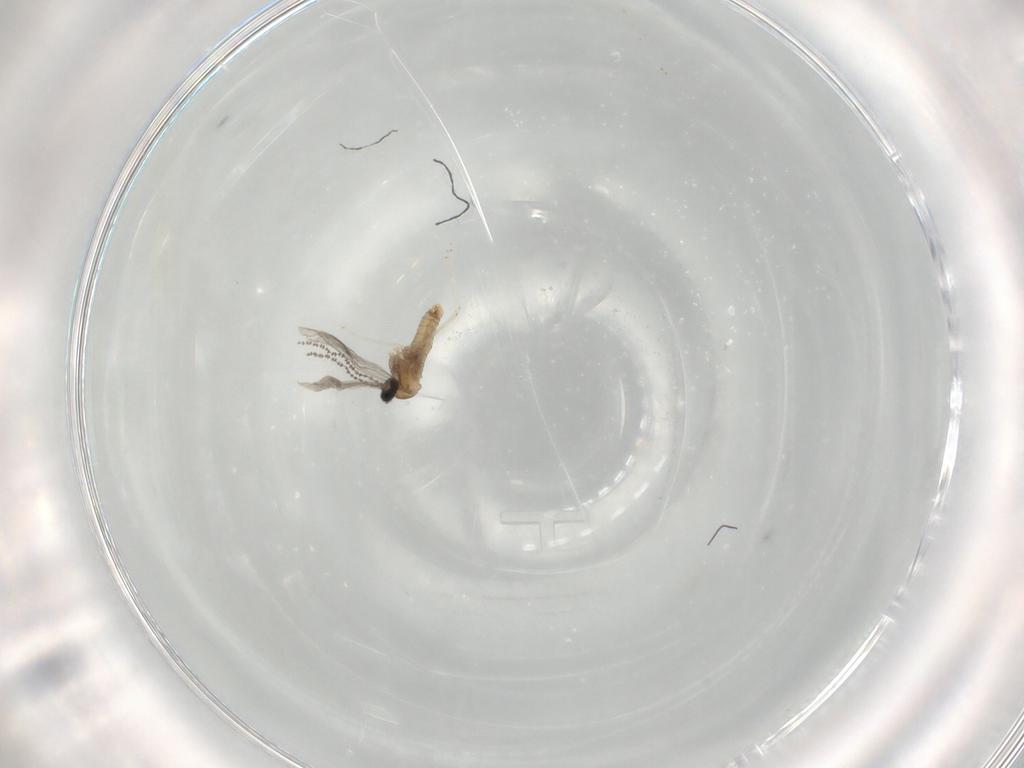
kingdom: Animalia
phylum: Arthropoda
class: Insecta
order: Diptera
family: Cecidomyiidae
